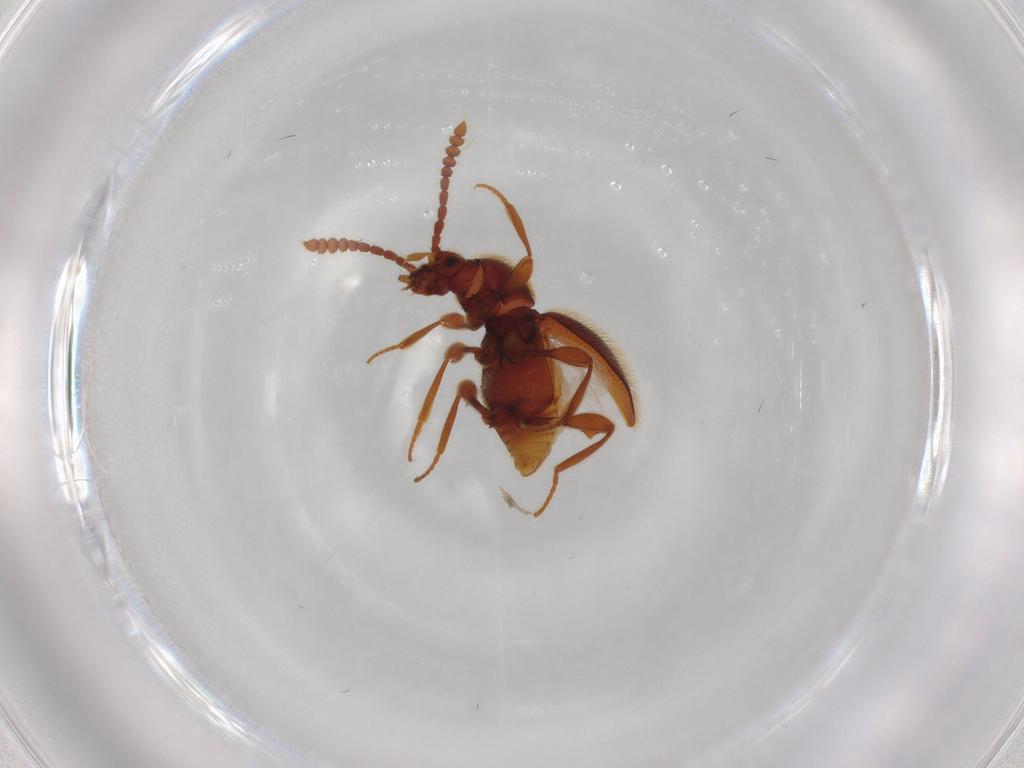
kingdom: Animalia
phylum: Arthropoda
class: Insecta
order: Coleoptera
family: Staphylinidae
